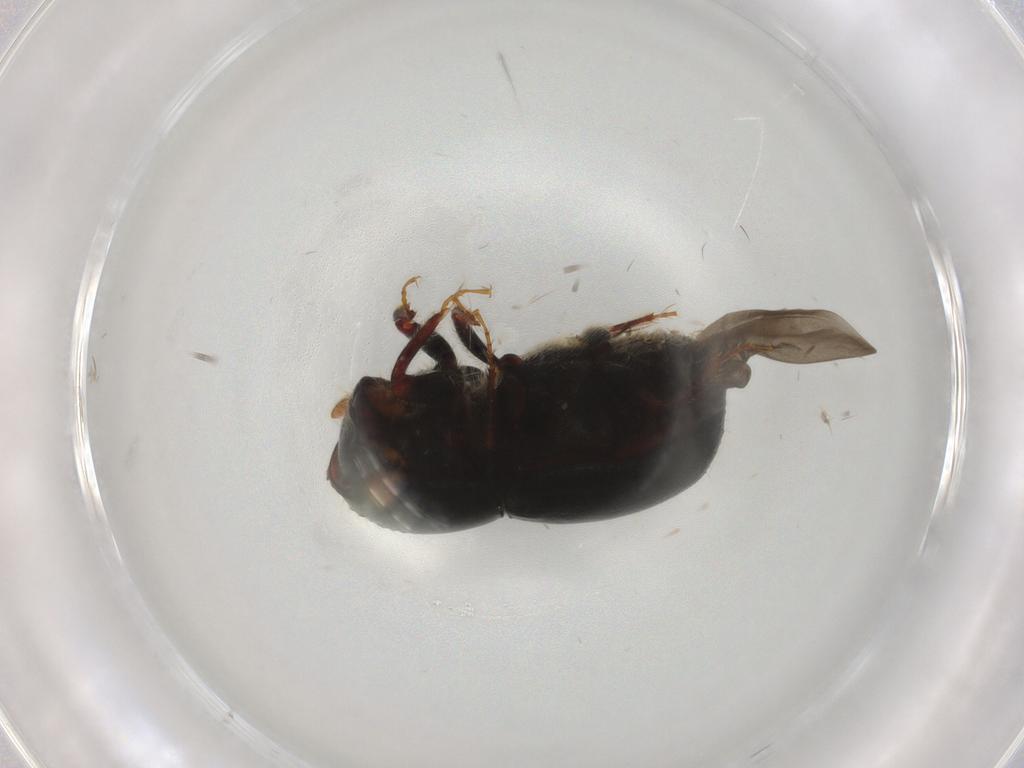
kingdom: Animalia
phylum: Arthropoda
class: Insecta
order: Coleoptera
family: Curculionidae
